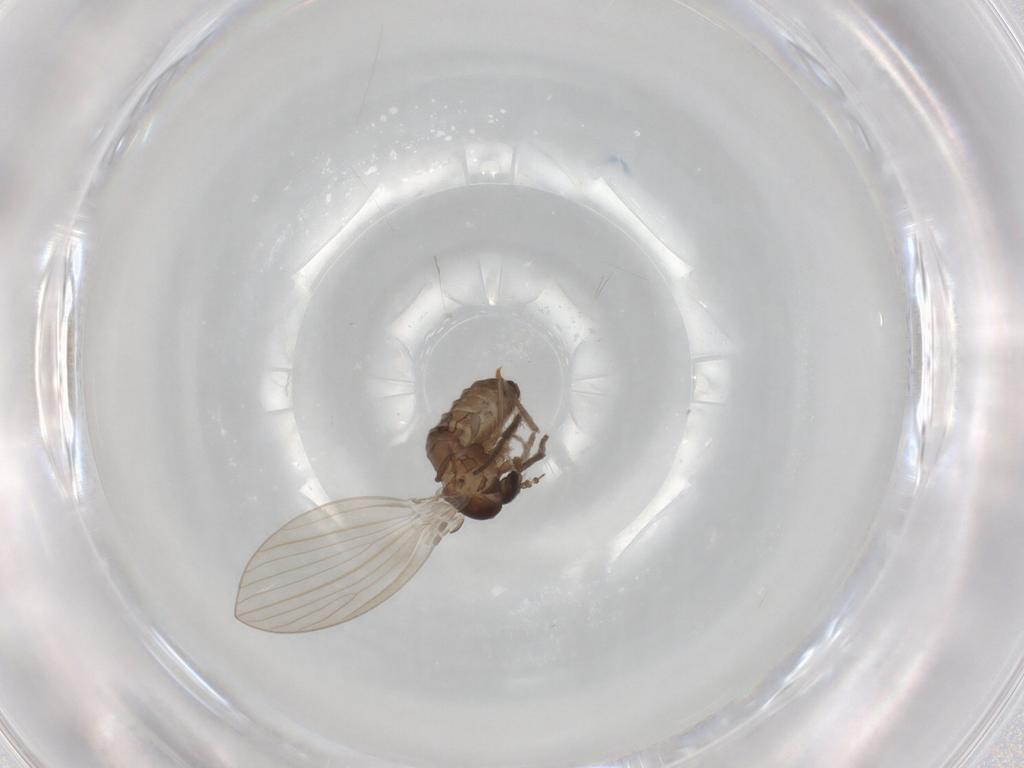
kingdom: Animalia
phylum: Arthropoda
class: Insecta
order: Diptera
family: Psychodidae
